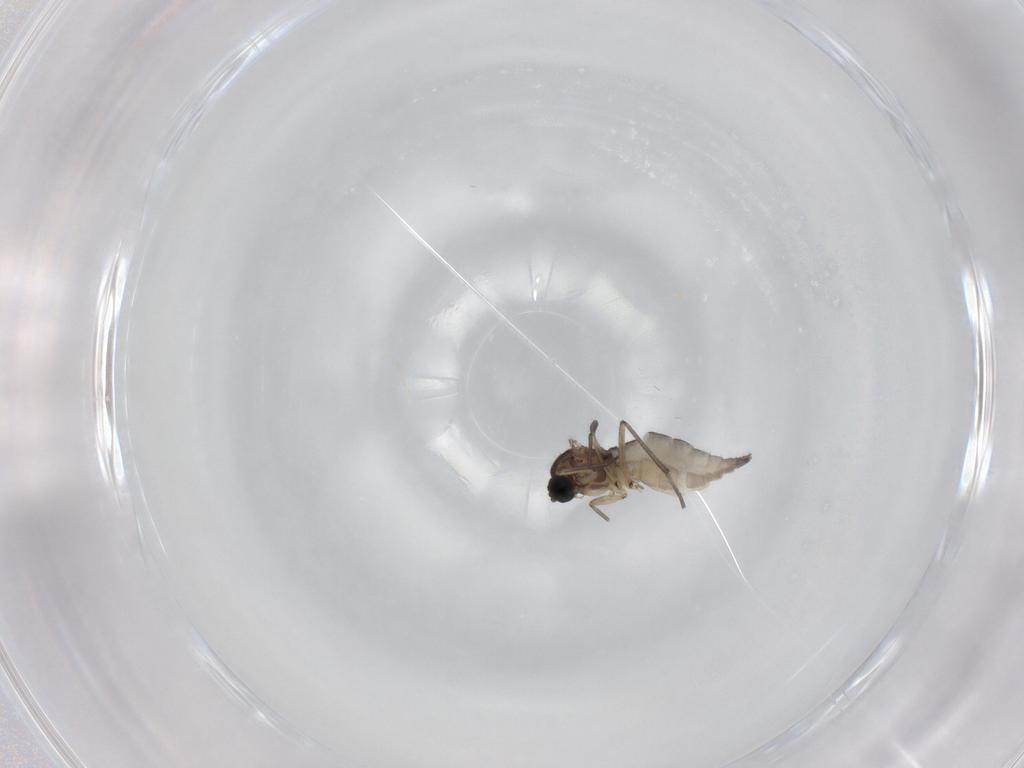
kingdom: Animalia
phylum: Arthropoda
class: Insecta
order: Diptera
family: Sciaridae
